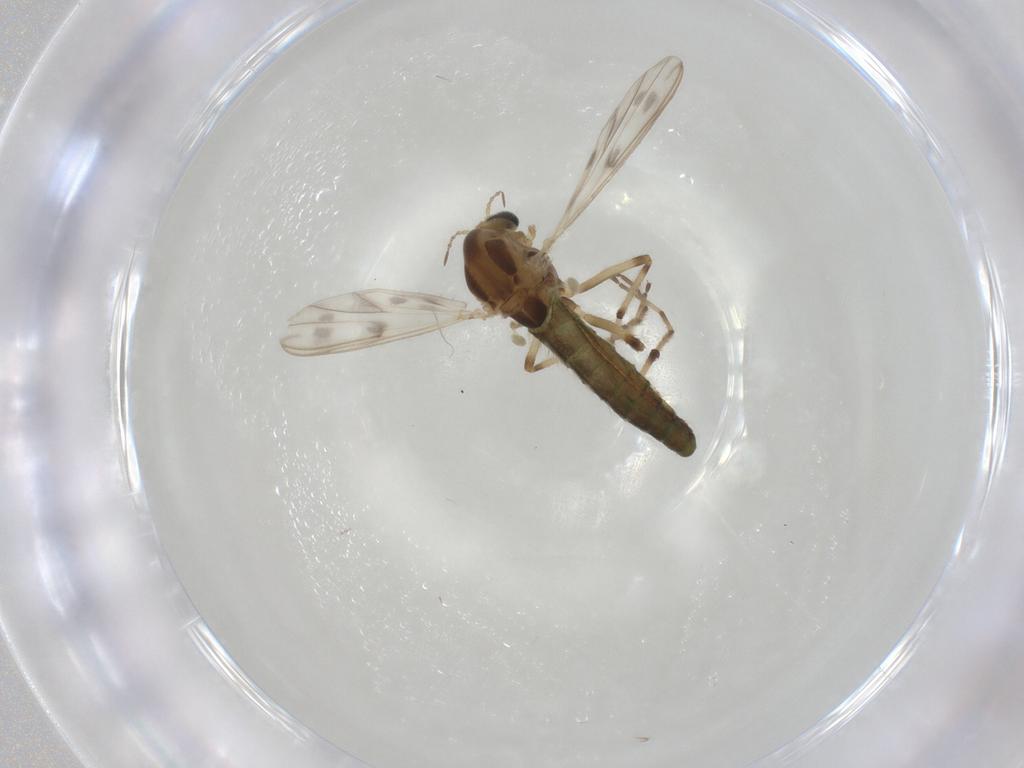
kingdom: Animalia
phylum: Arthropoda
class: Insecta
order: Diptera
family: Chironomidae
